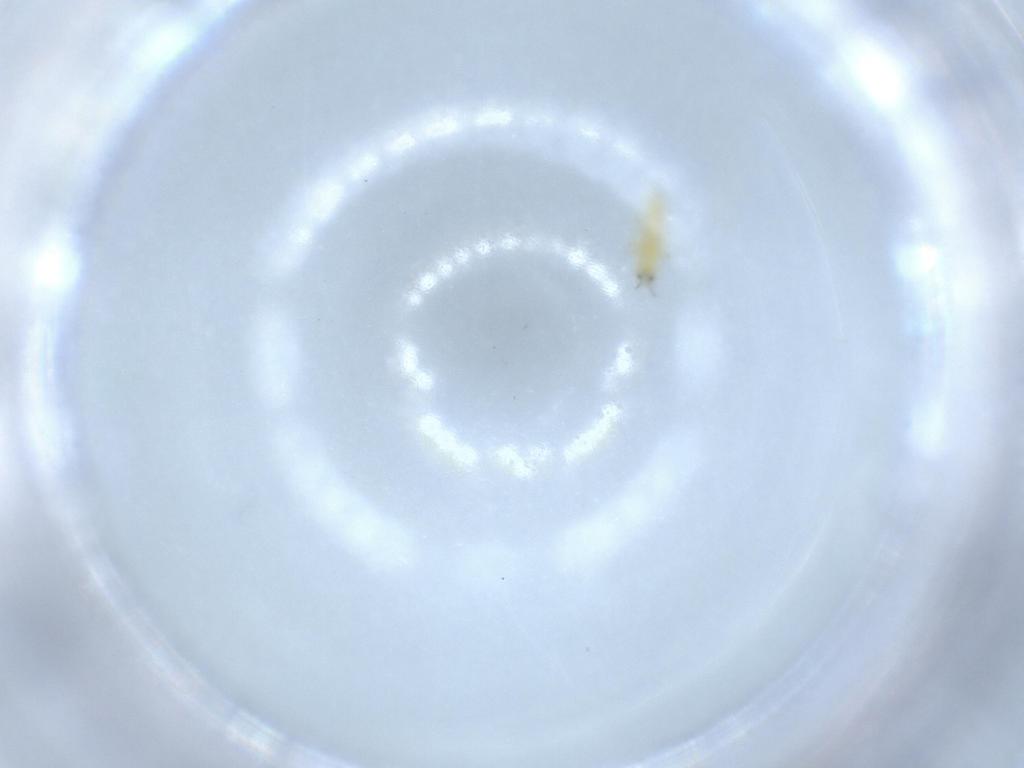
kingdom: Animalia
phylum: Arthropoda
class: Insecta
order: Thysanoptera
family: Thripidae
